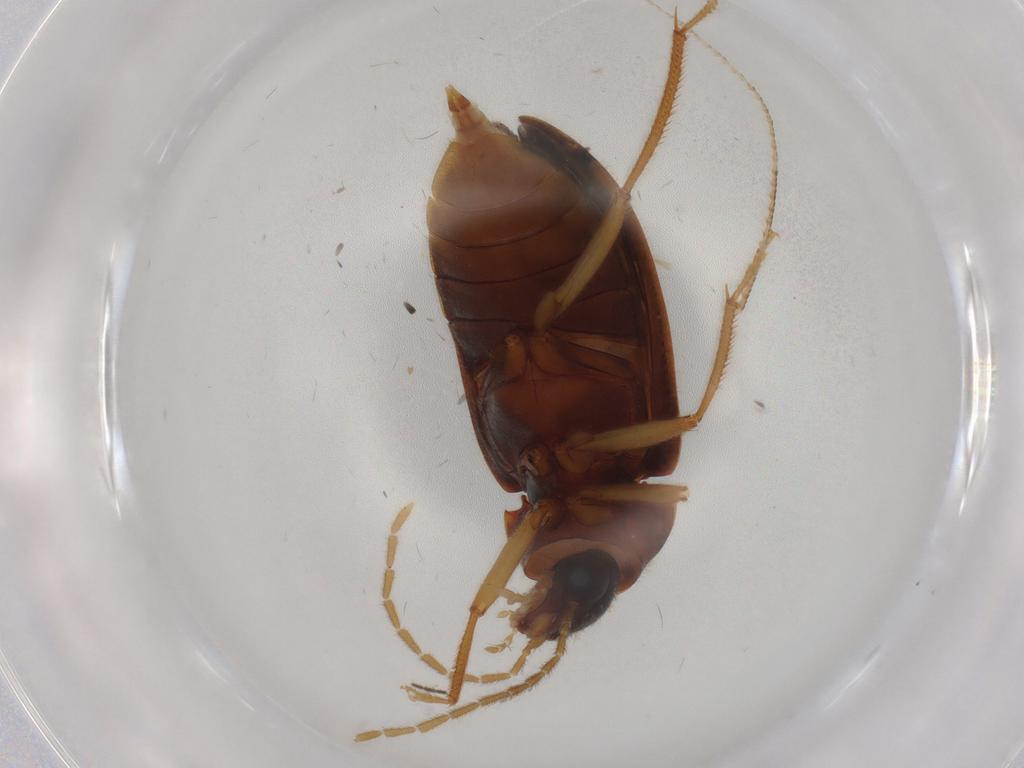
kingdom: Animalia
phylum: Arthropoda
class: Insecta
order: Coleoptera
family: Ptilodactylidae
